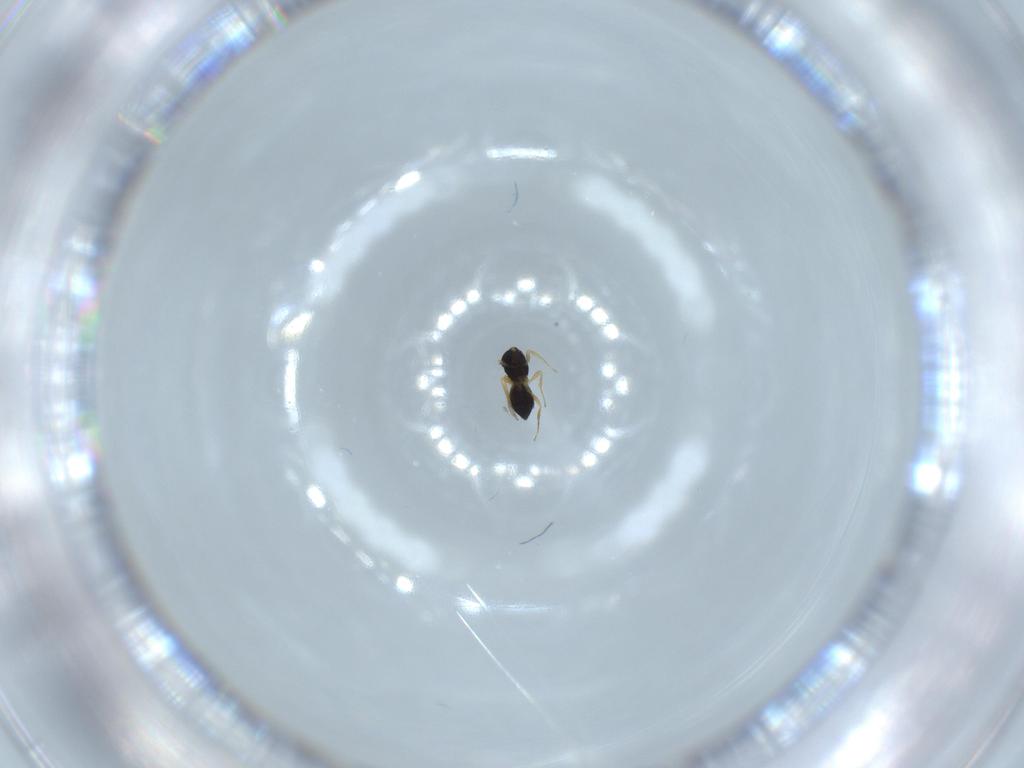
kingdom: Animalia
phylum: Arthropoda
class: Insecta
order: Hymenoptera
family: Scelionidae
